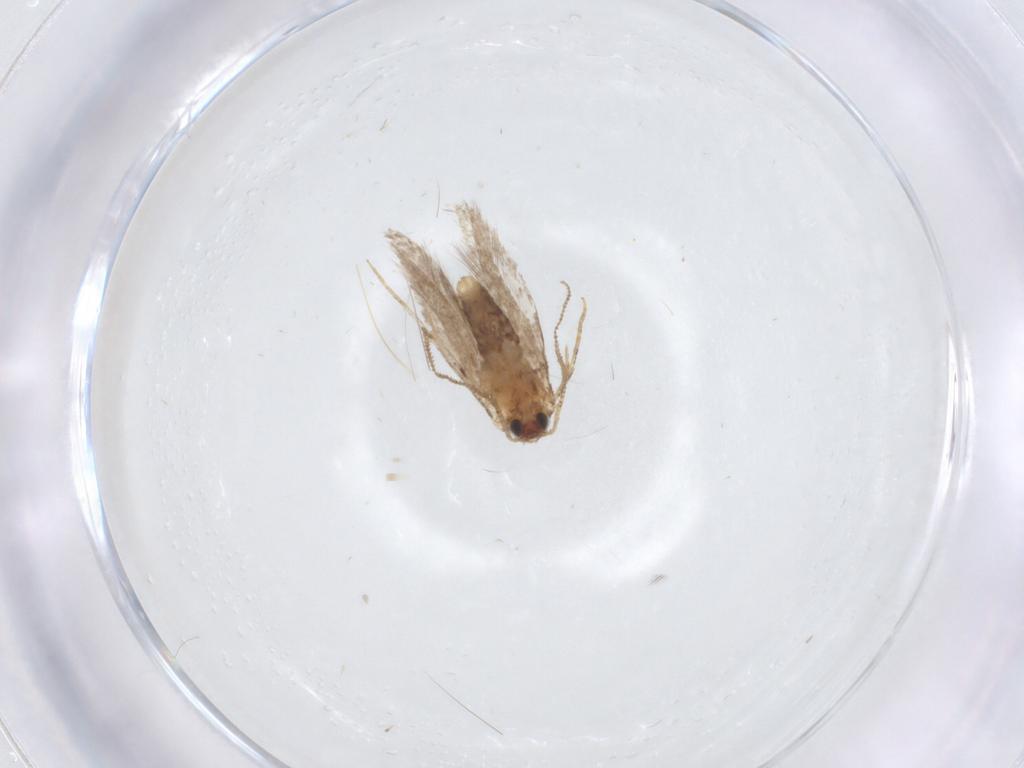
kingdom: Animalia
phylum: Arthropoda
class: Insecta
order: Lepidoptera
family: Meessiidae
